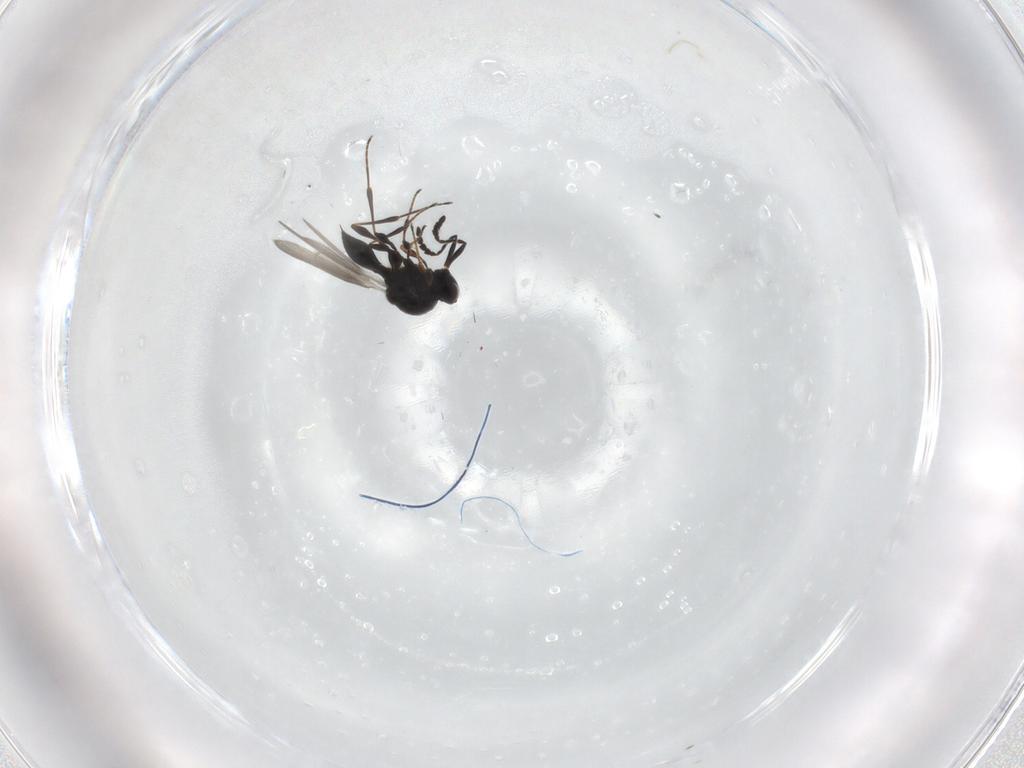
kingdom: Animalia
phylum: Arthropoda
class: Insecta
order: Hymenoptera
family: Platygastridae
